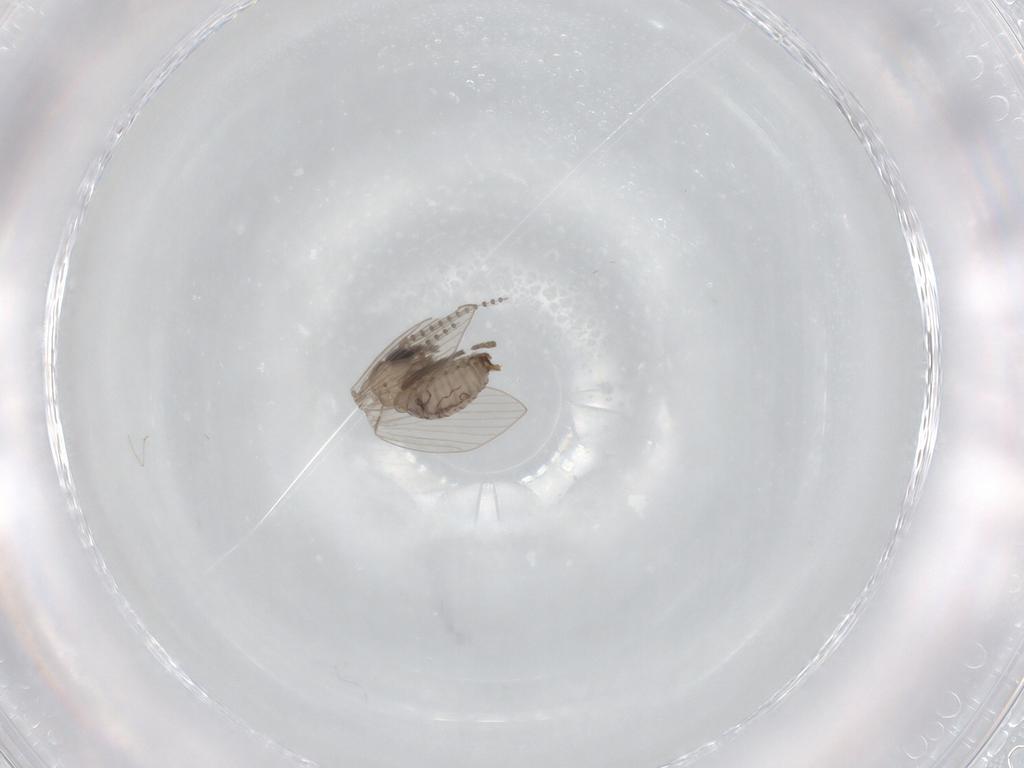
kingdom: Animalia
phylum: Arthropoda
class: Insecta
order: Diptera
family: Psychodidae
